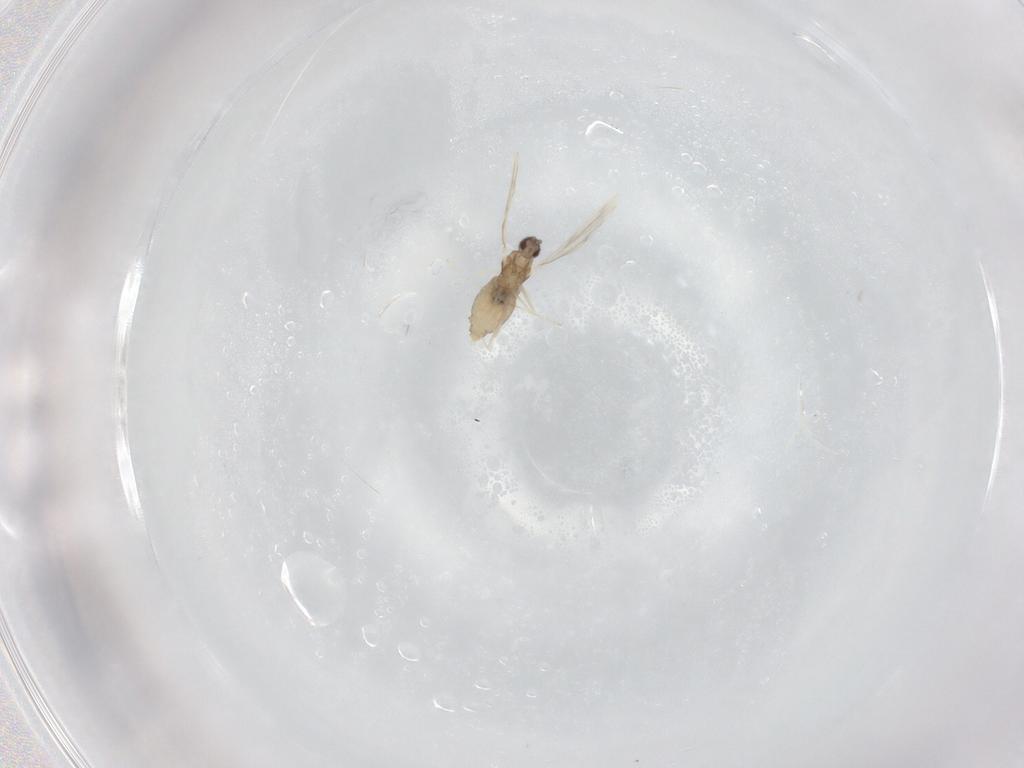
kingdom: Animalia
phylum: Arthropoda
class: Insecta
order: Diptera
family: Cecidomyiidae
